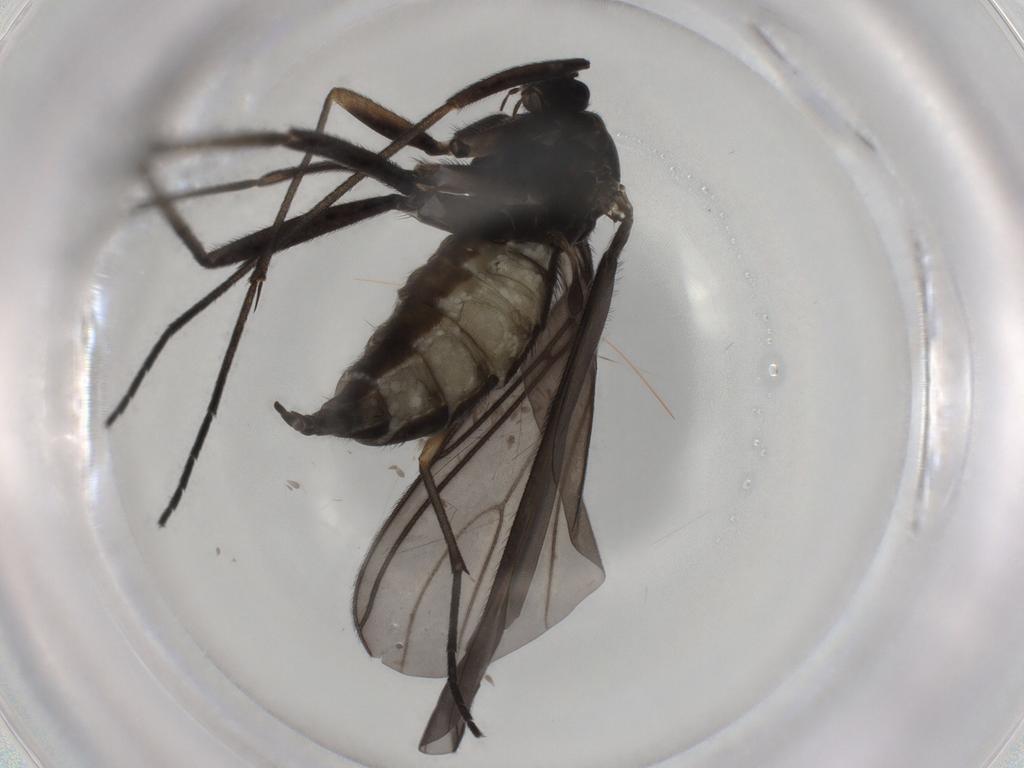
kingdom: Animalia
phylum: Arthropoda
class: Insecta
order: Diptera
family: Sciaridae
